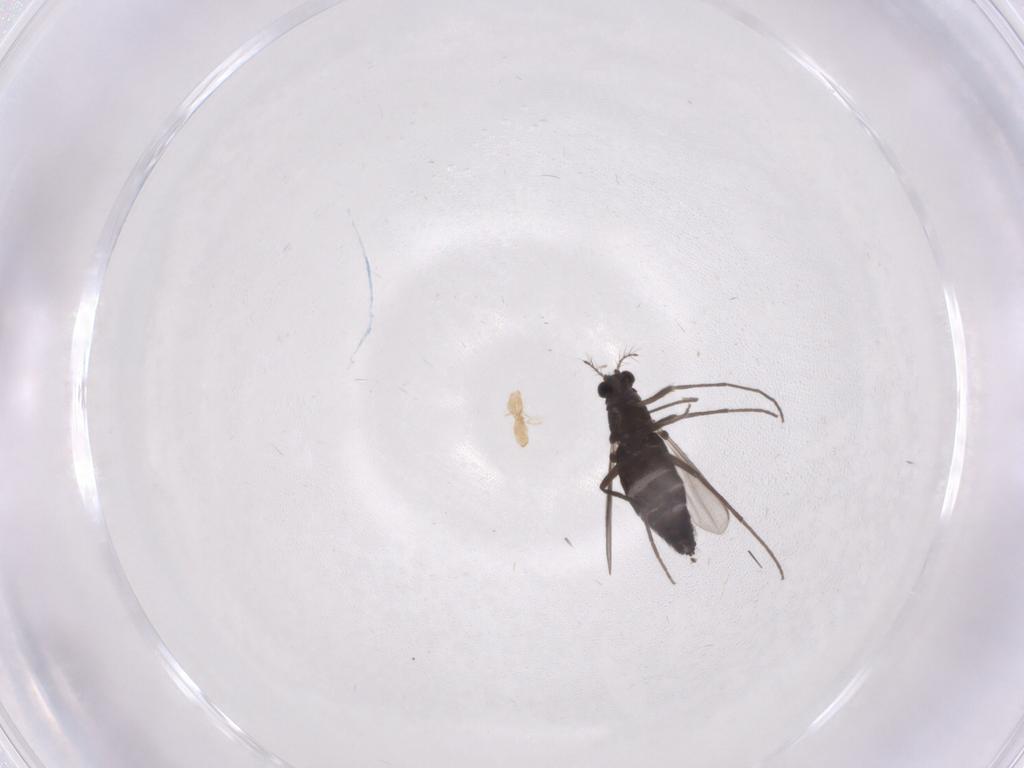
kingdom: Animalia
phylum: Arthropoda
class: Insecta
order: Diptera
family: Chironomidae
